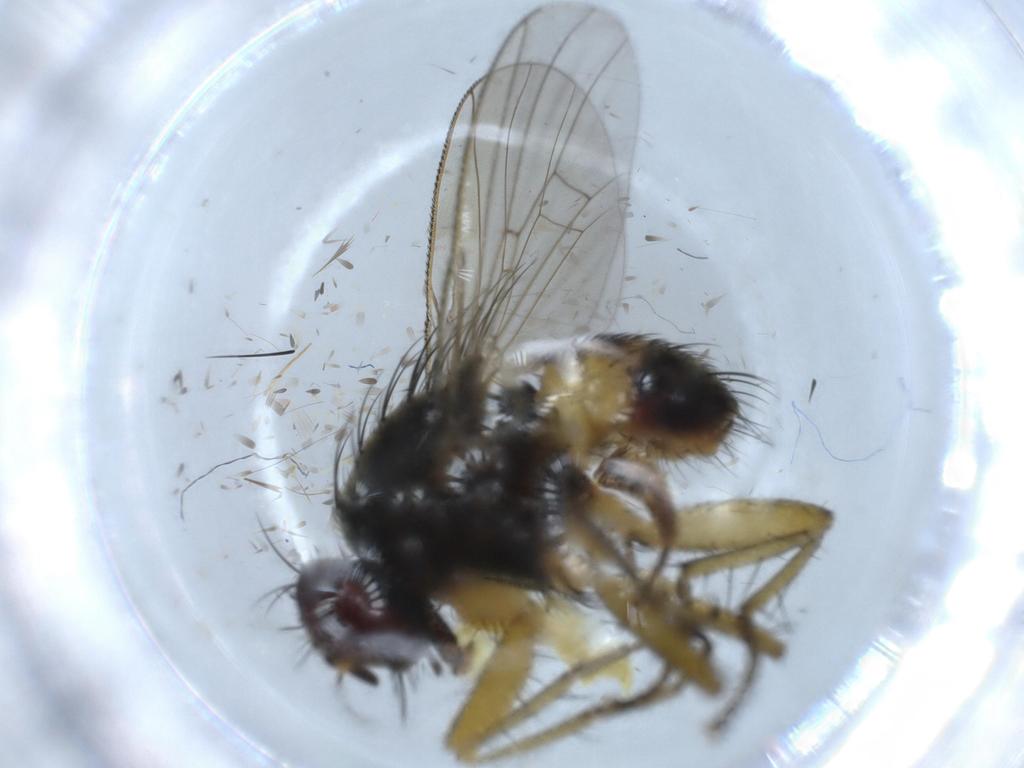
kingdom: Animalia
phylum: Arthropoda
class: Insecta
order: Diptera
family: Muscidae
